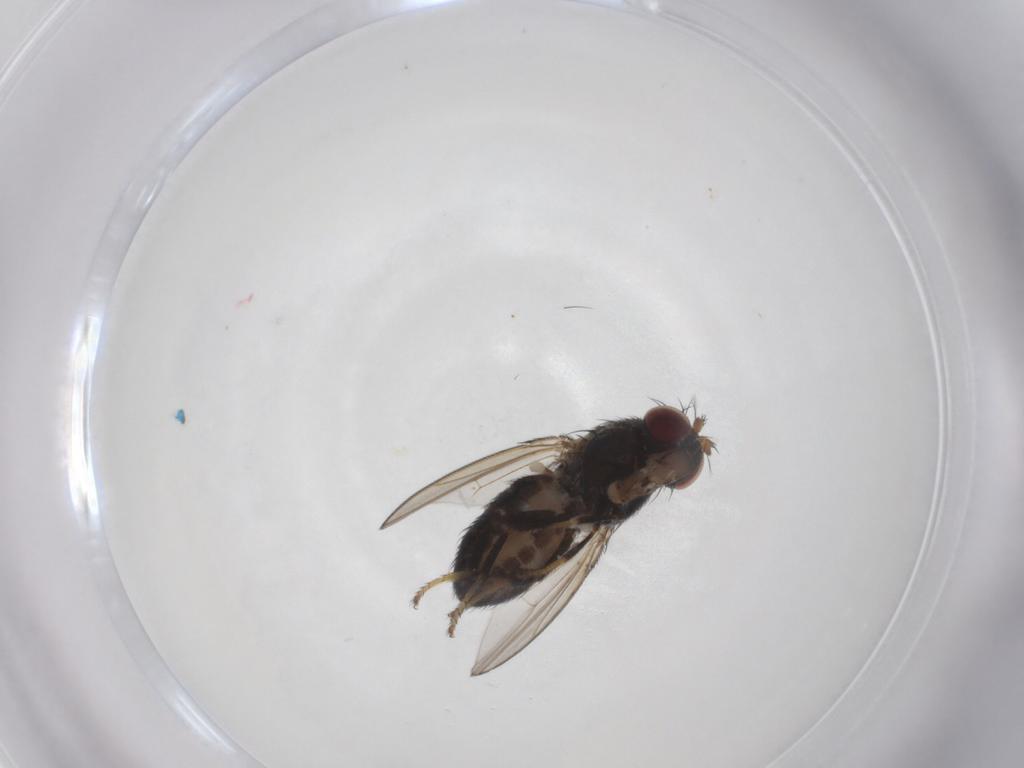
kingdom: Animalia
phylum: Arthropoda
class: Insecta
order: Diptera
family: Dolichopodidae
